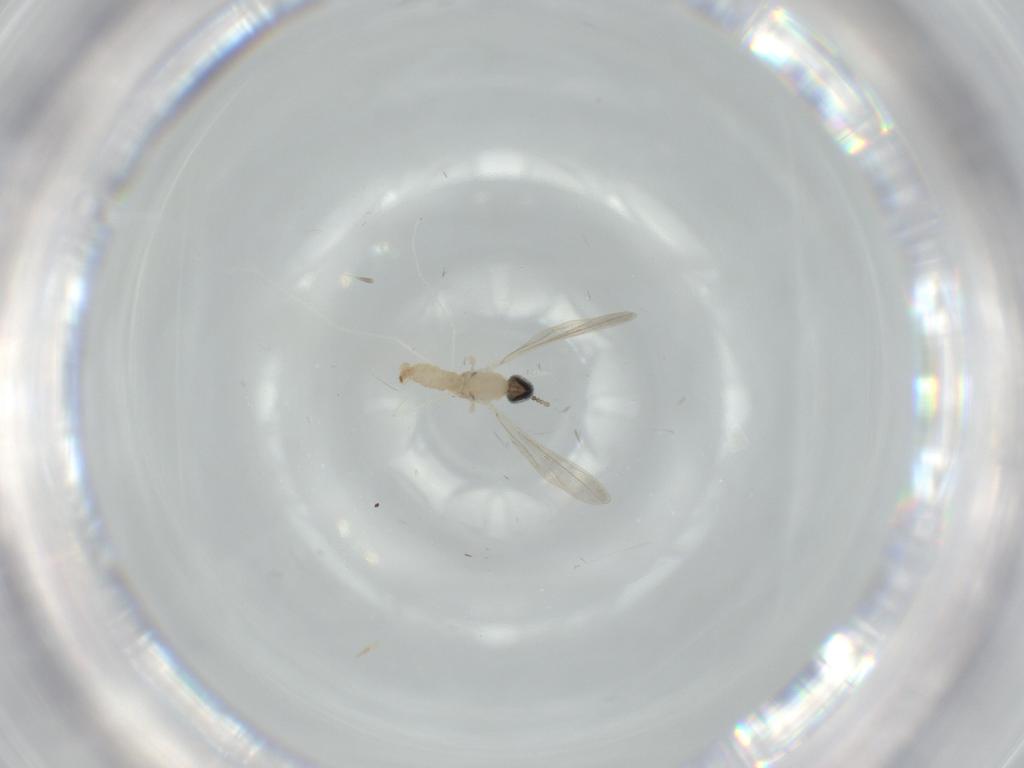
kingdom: Animalia
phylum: Arthropoda
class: Insecta
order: Diptera
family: Cecidomyiidae
